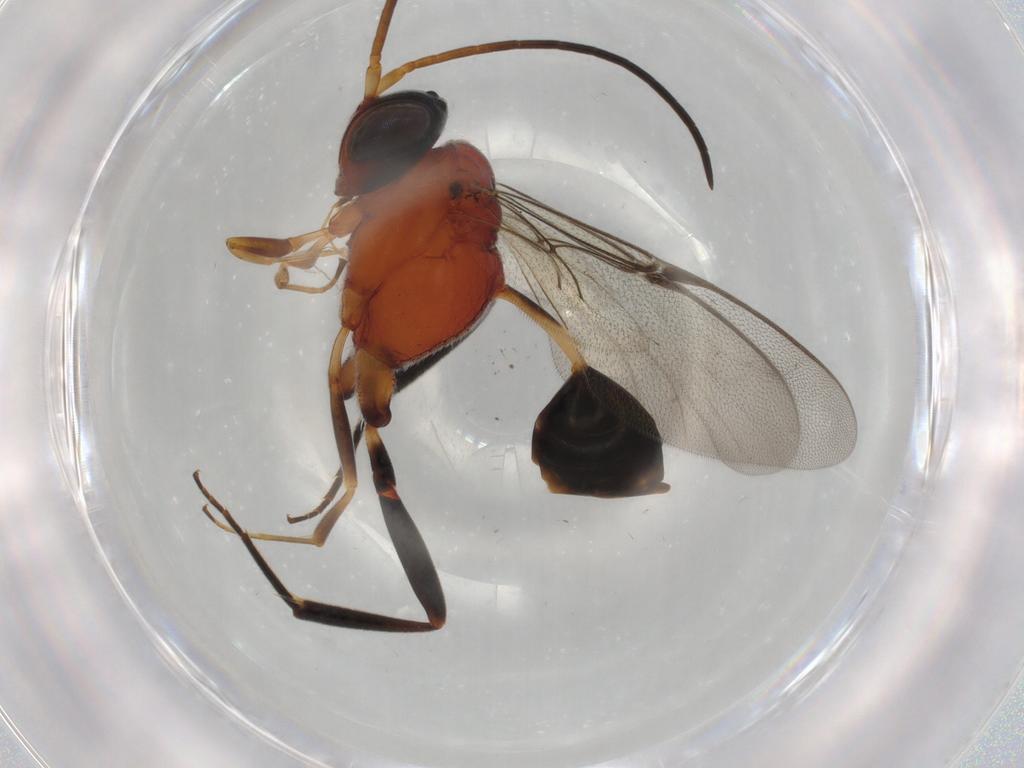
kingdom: Animalia
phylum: Arthropoda
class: Insecta
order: Hymenoptera
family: Evaniidae
